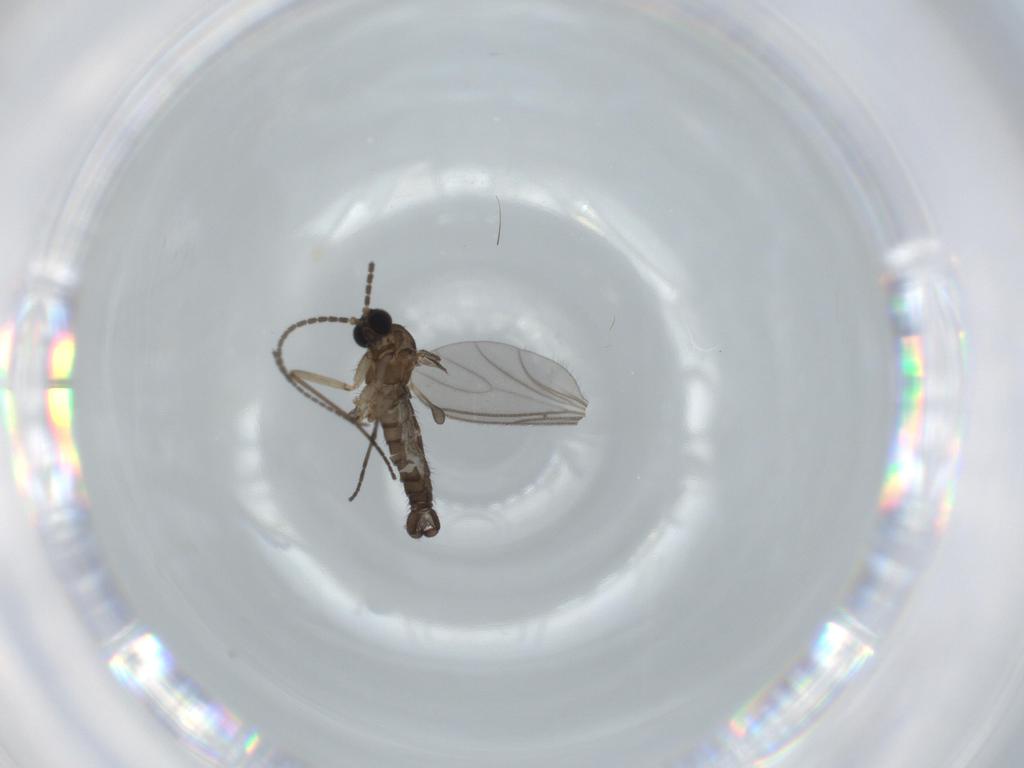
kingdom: Animalia
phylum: Arthropoda
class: Insecta
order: Diptera
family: Sciaridae
